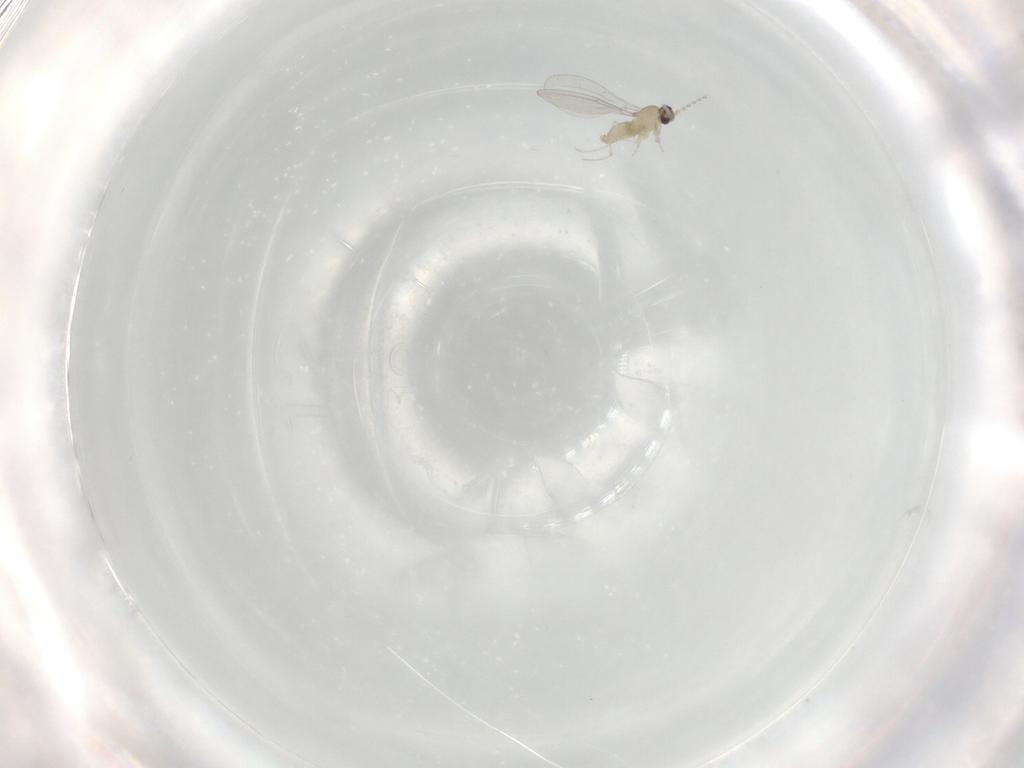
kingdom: Animalia
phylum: Arthropoda
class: Insecta
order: Diptera
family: Cecidomyiidae
